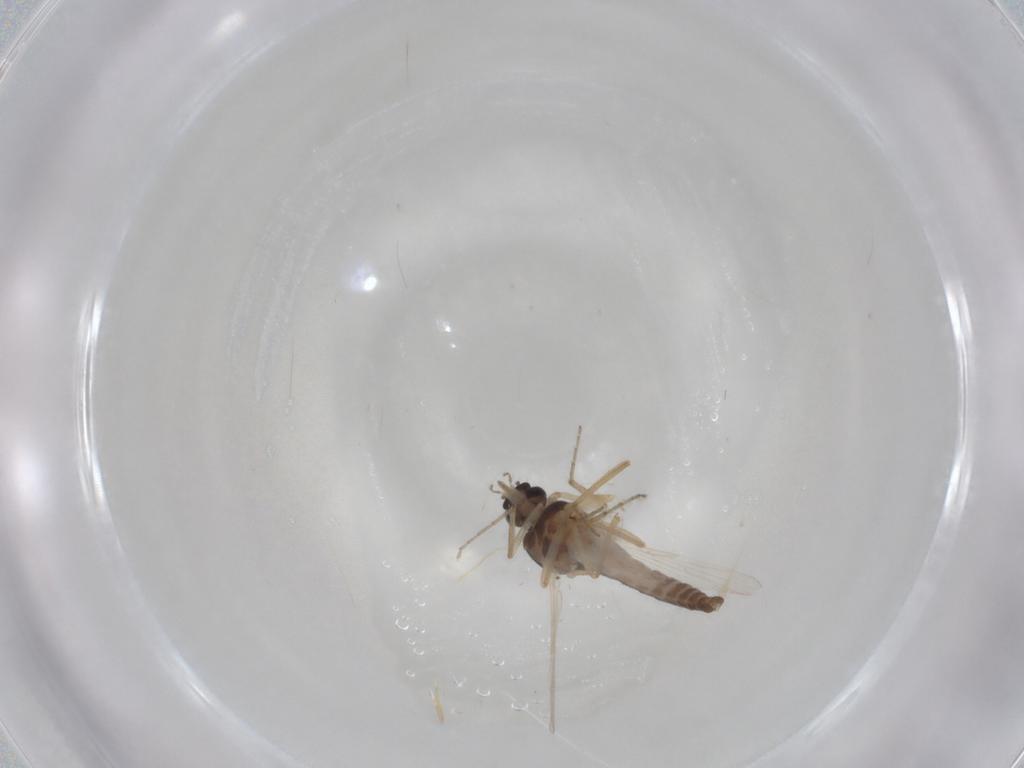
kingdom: Animalia
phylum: Arthropoda
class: Insecta
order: Diptera
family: Ceratopogonidae
